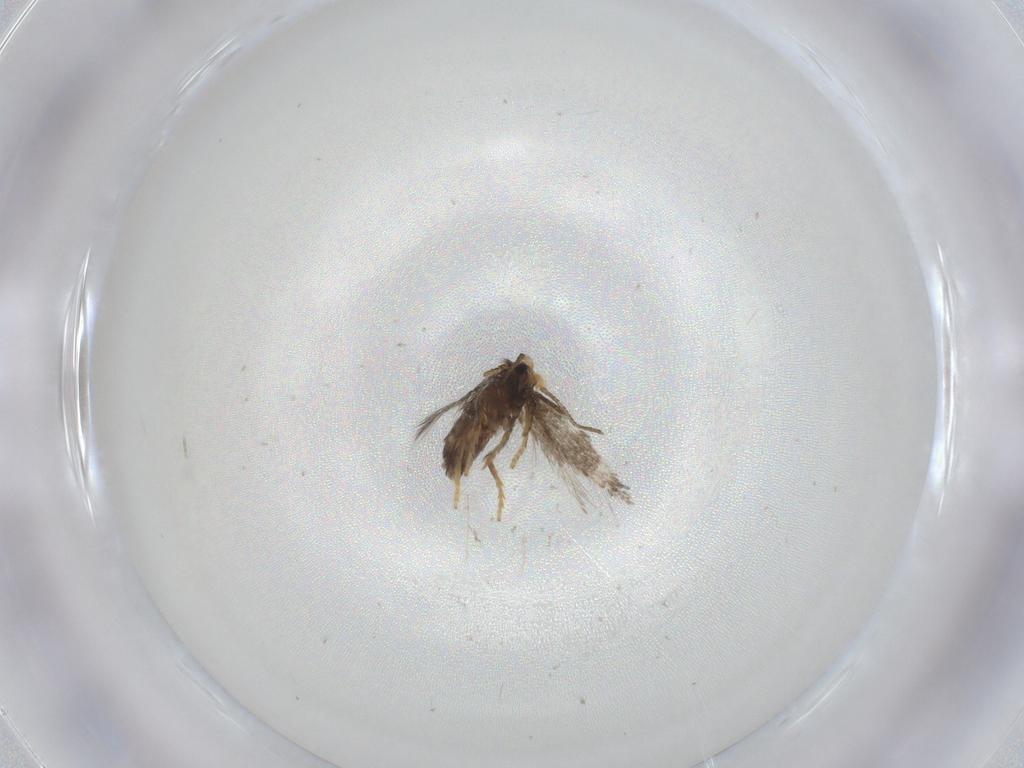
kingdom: Animalia
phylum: Arthropoda
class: Insecta
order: Lepidoptera
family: Nepticulidae
